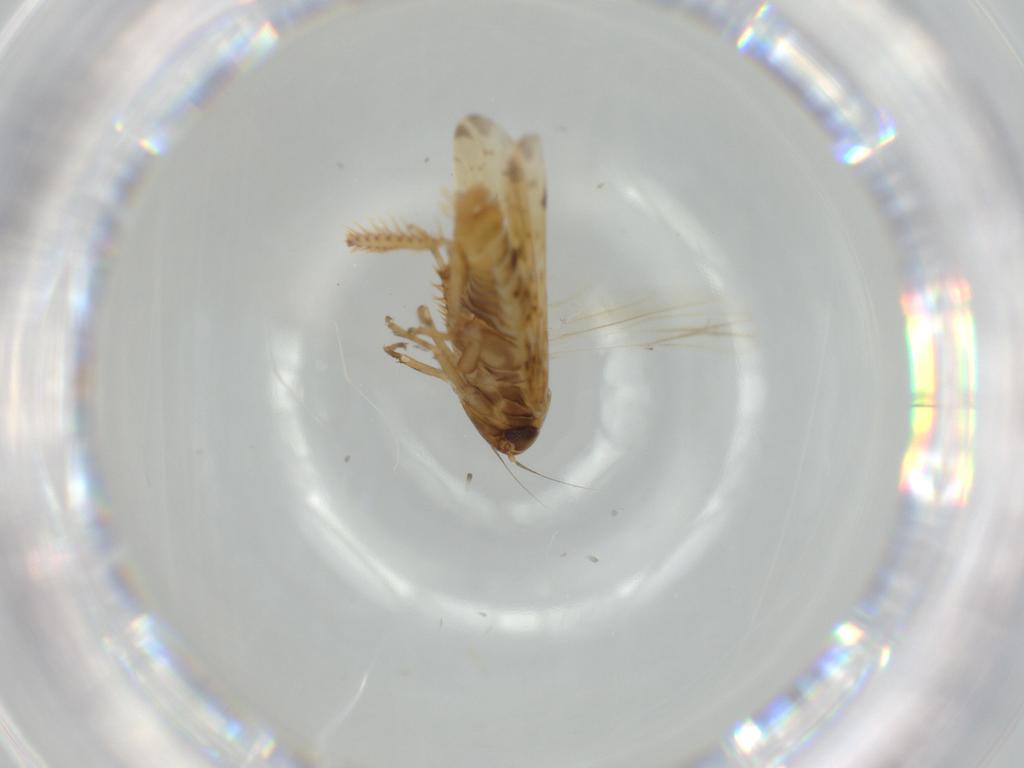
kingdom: Animalia
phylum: Arthropoda
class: Insecta
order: Hemiptera
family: Cicadellidae
